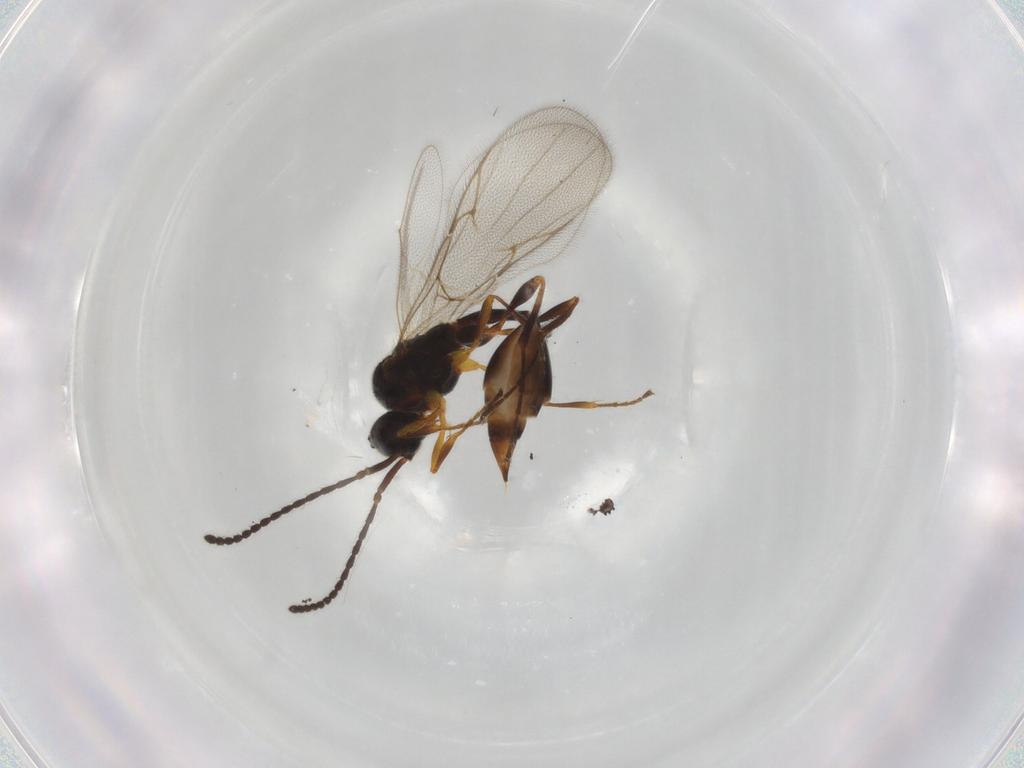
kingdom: Animalia
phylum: Arthropoda
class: Insecta
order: Hymenoptera
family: Diapriidae
